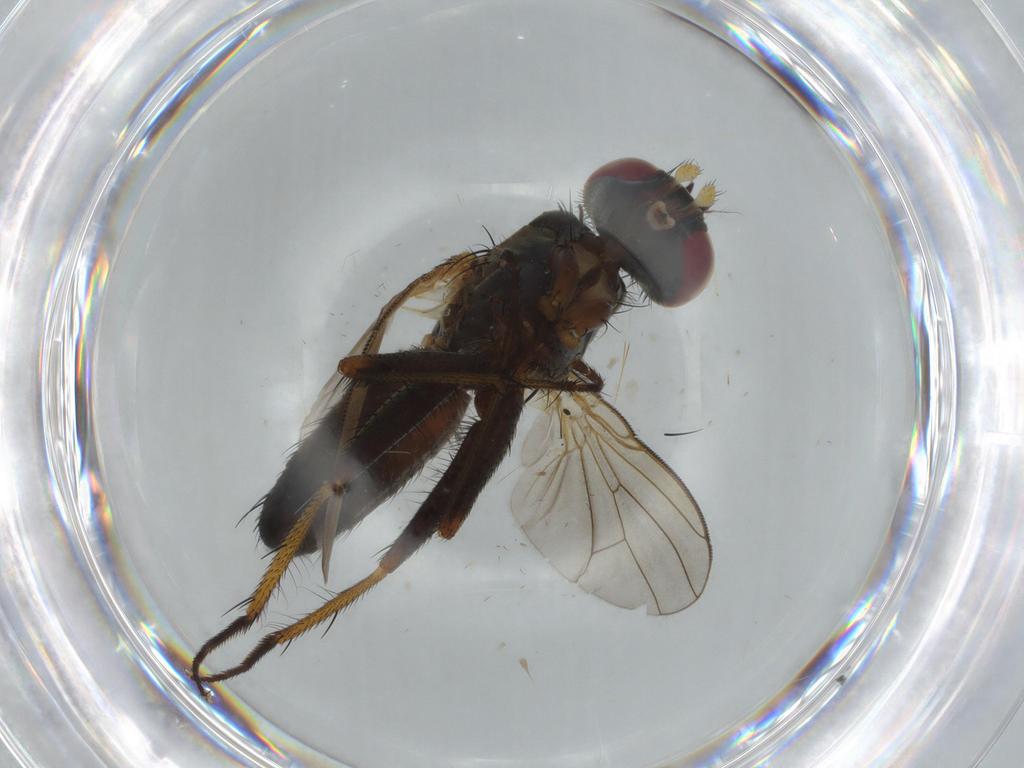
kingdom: Animalia
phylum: Arthropoda
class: Insecta
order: Diptera
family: Muscidae
